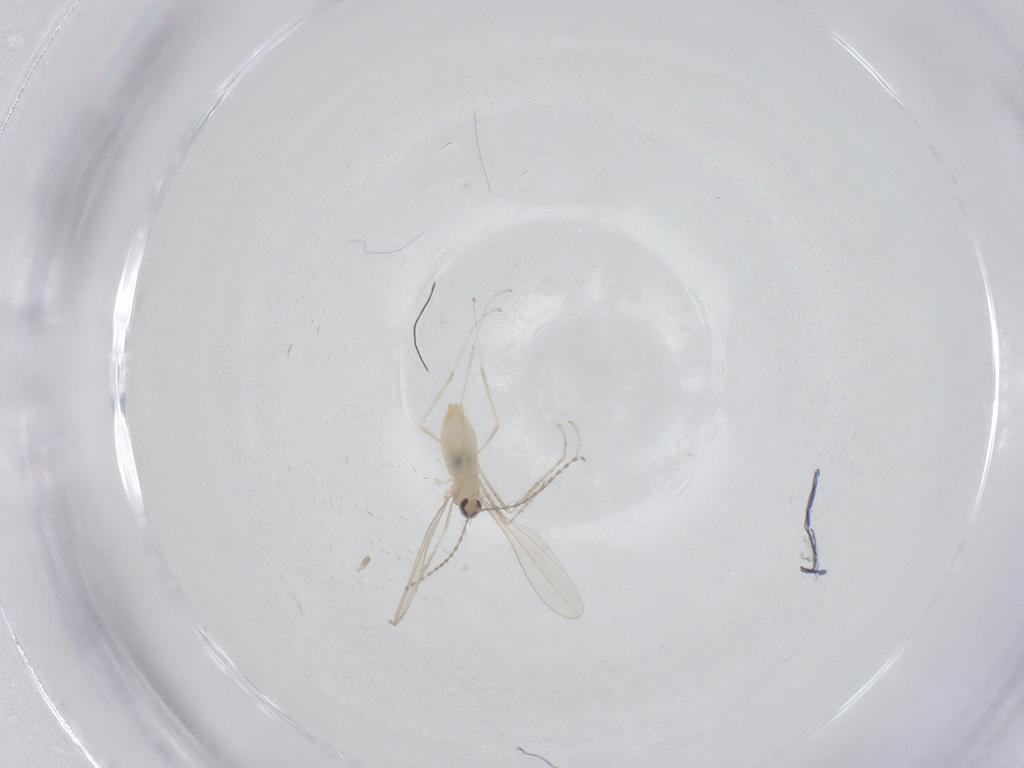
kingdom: Animalia
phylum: Arthropoda
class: Insecta
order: Diptera
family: Cecidomyiidae
